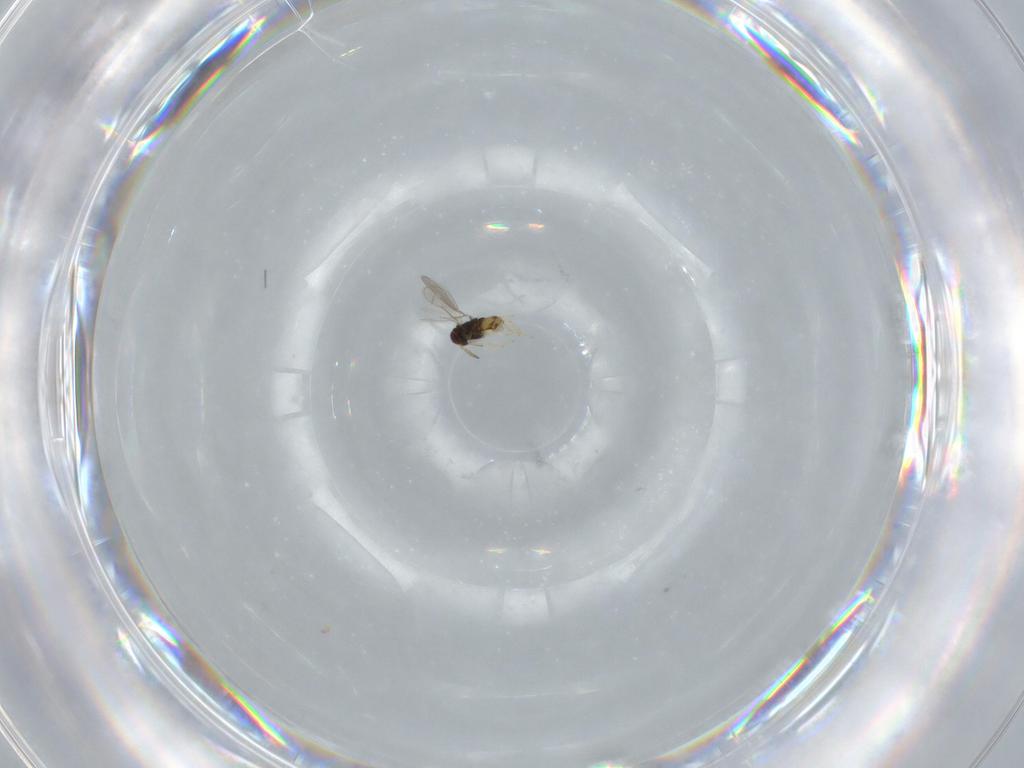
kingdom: Animalia
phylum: Arthropoda
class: Insecta
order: Hymenoptera
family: Aphelinidae
